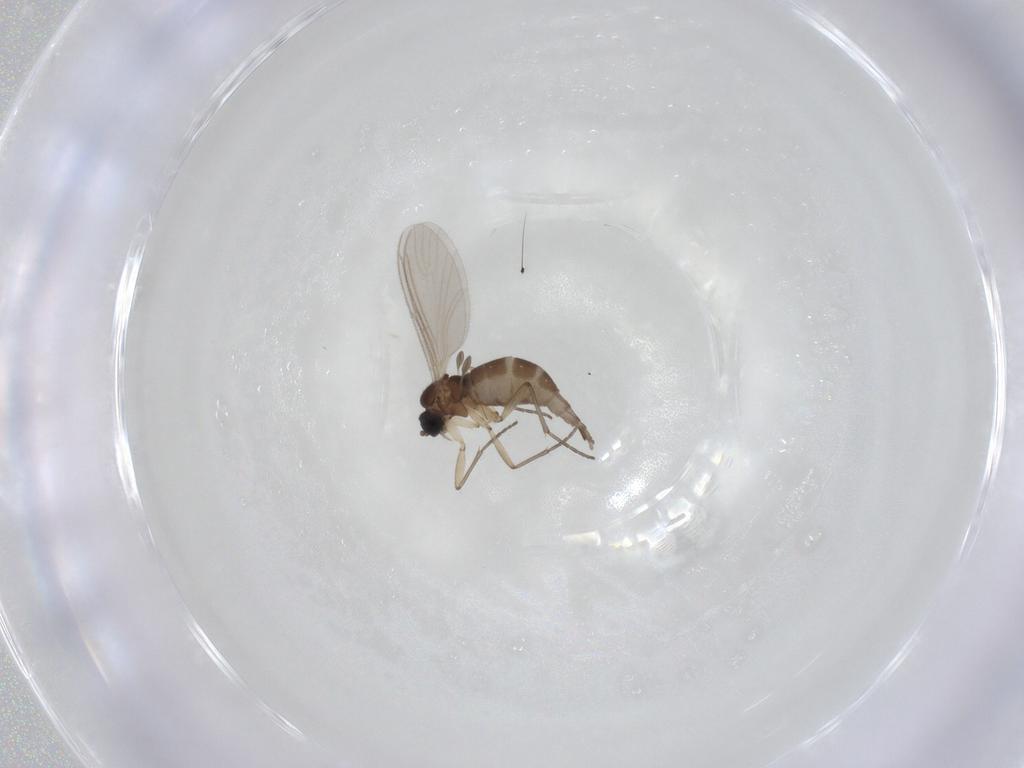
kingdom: Animalia
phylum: Arthropoda
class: Insecta
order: Diptera
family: Sciaridae
